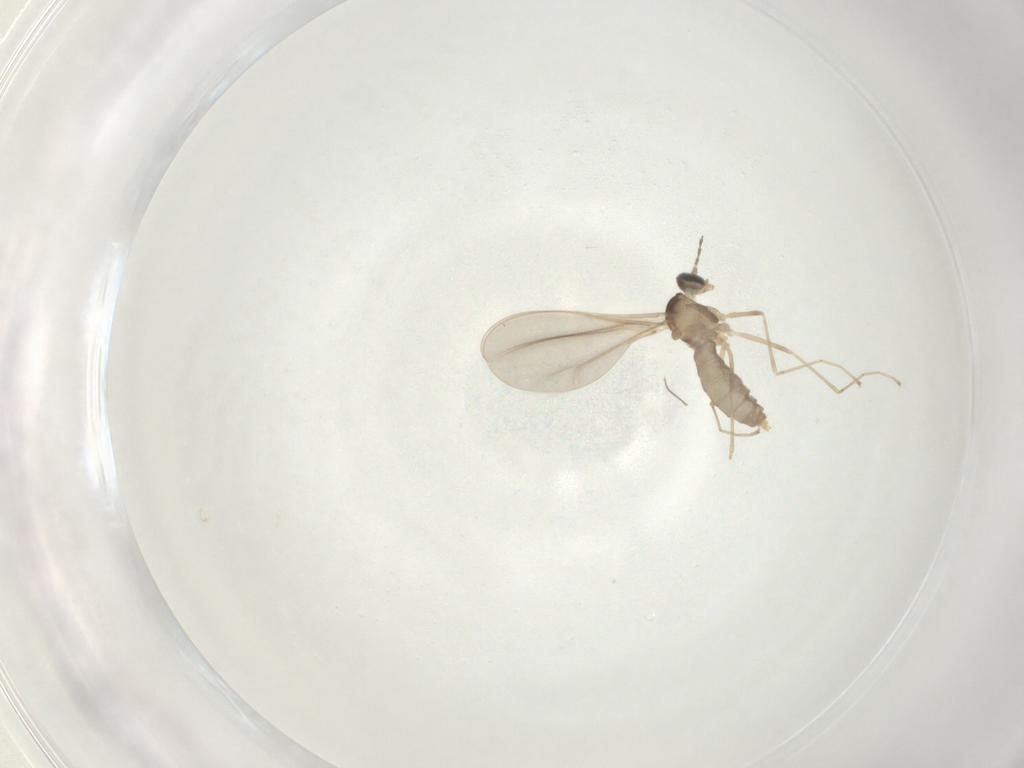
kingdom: Animalia
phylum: Arthropoda
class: Insecta
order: Diptera
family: Cecidomyiidae
